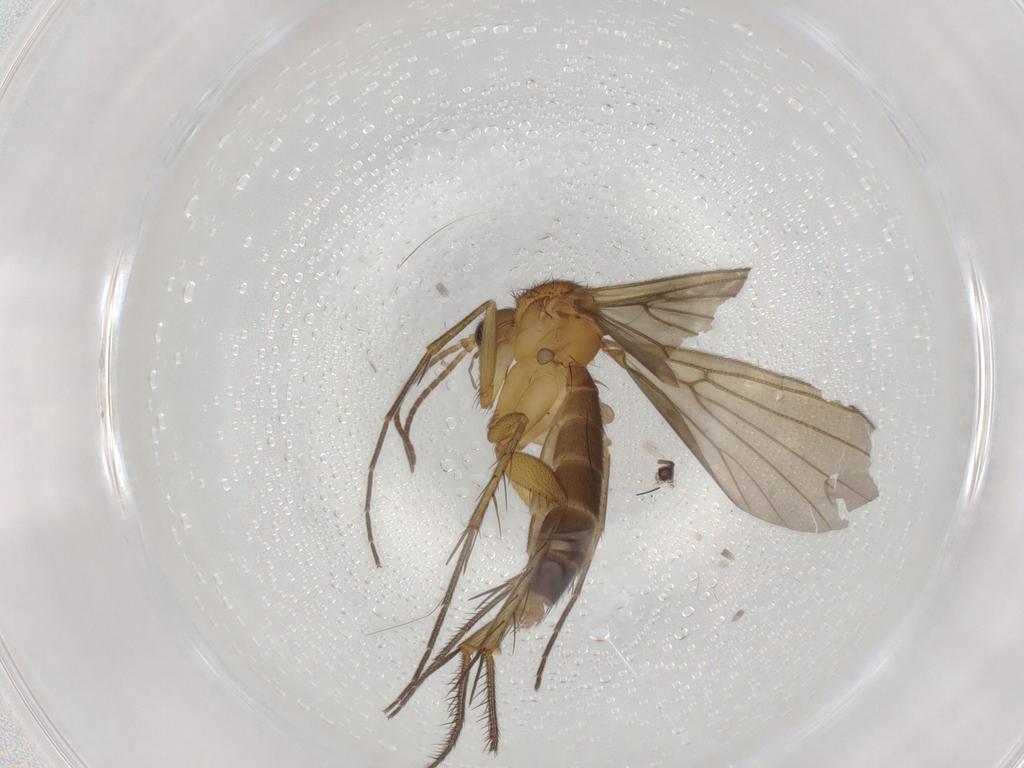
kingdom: Animalia
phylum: Arthropoda
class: Insecta
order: Diptera
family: Mycetophilidae
